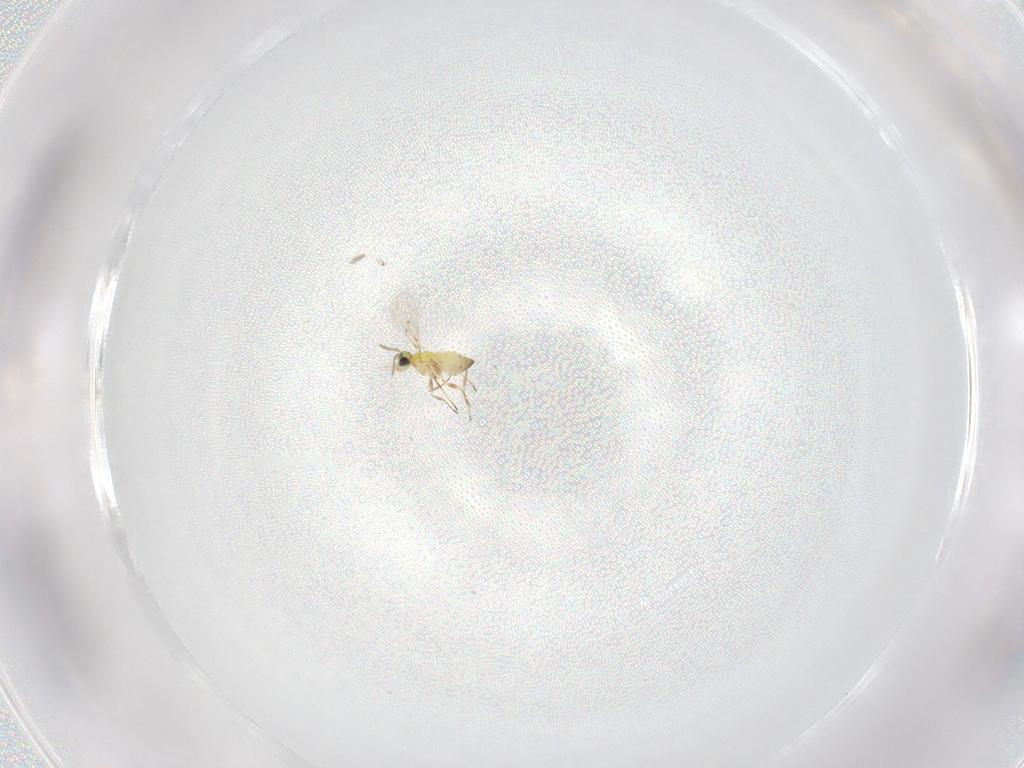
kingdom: Animalia
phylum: Arthropoda
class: Insecta
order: Hymenoptera
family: Trichogrammatidae
